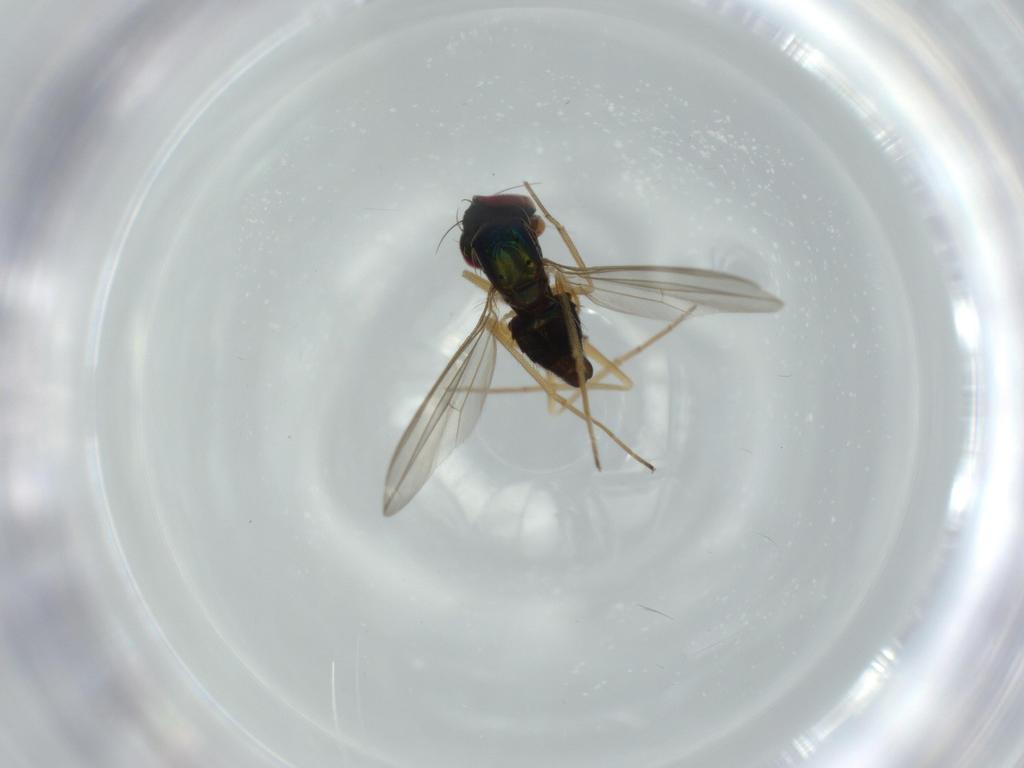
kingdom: Animalia
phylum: Arthropoda
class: Insecta
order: Diptera
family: Dolichopodidae
